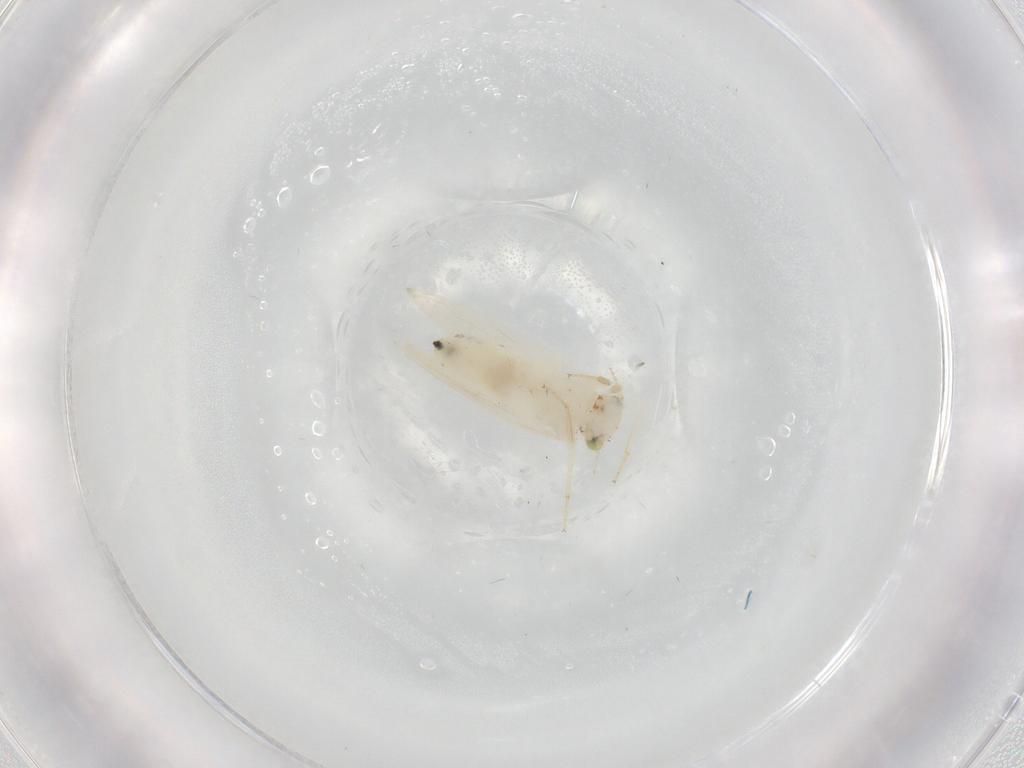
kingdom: Animalia
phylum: Arthropoda
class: Insecta
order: Psocodea
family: Lepidopsocidae
